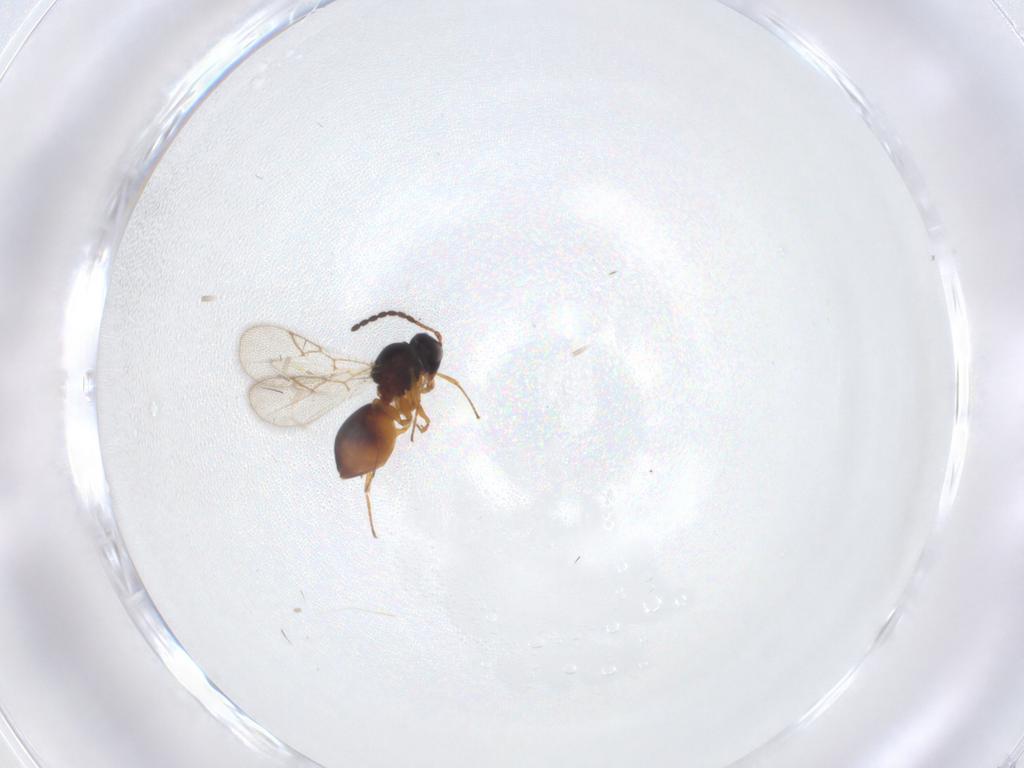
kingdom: Animalia
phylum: Arthropoda
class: Insecta
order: Hymenoptera
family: Figitidae
